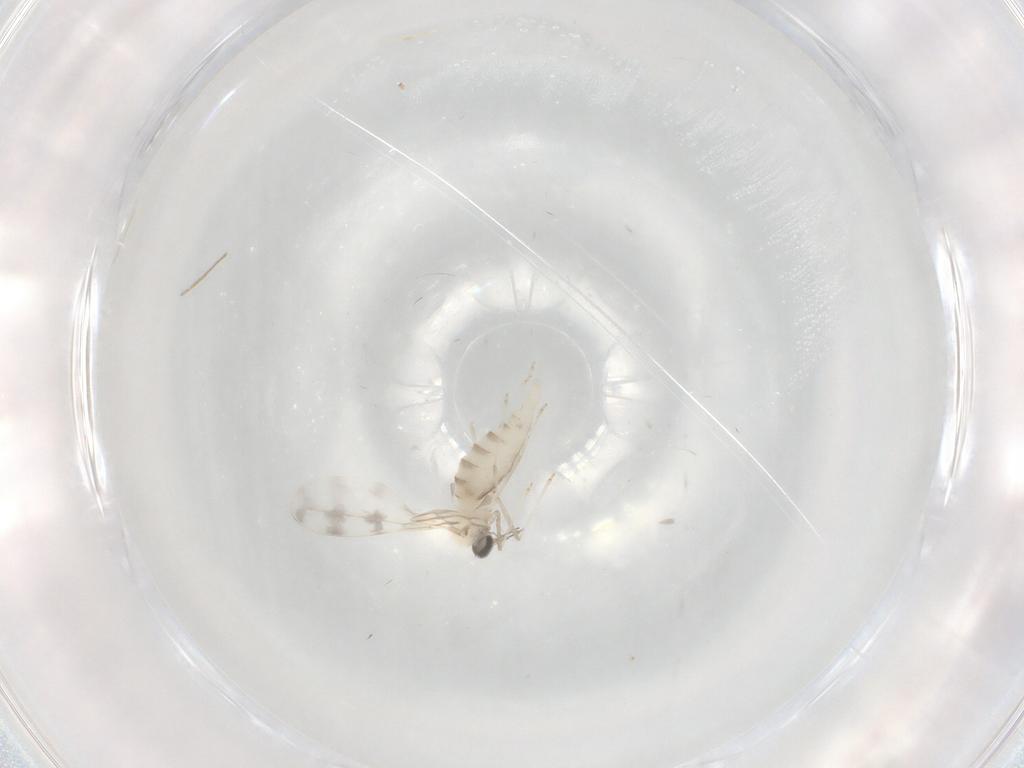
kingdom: Animalia
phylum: Arthropoda
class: Insecta
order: Diptera
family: Cecidomyiidae
